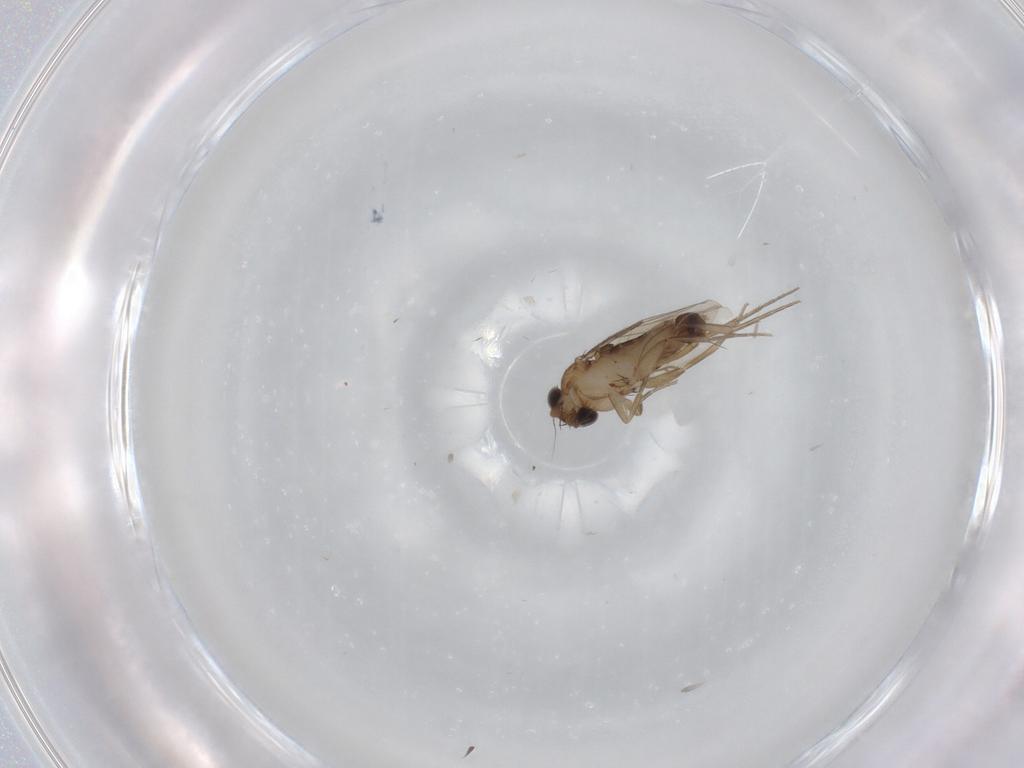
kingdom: Animalia
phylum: Arthropoda
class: Insecta
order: Diptera
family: Phoridae
